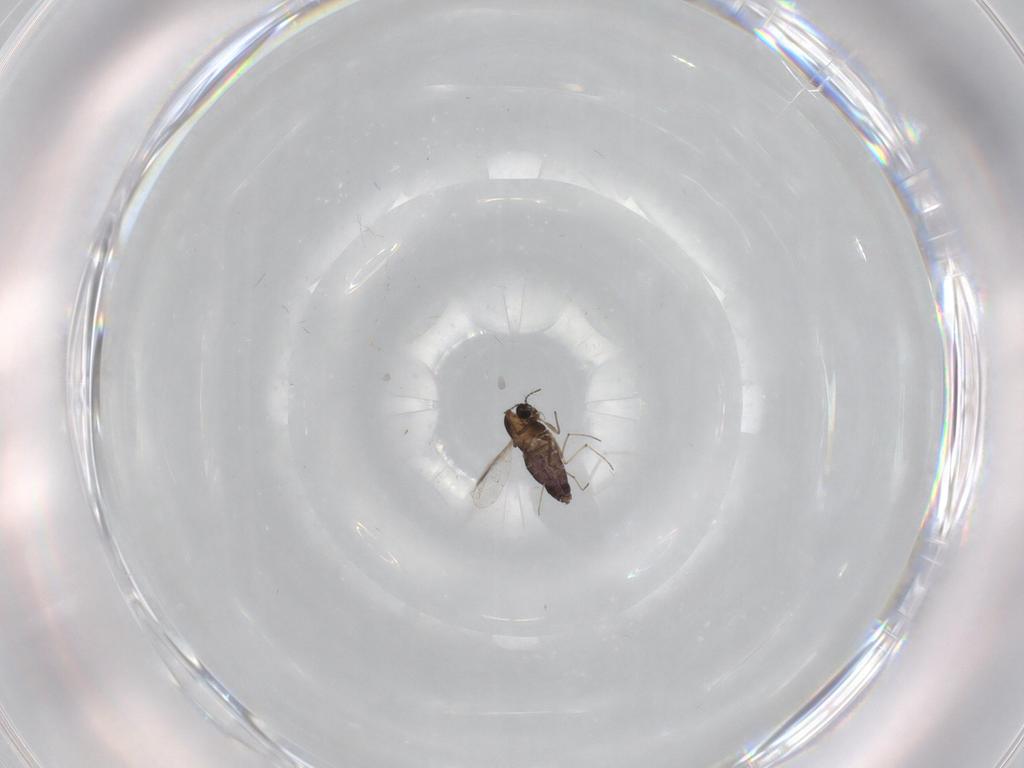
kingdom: Animalia
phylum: Arthropoda
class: Insecta
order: Diptera
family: Chironomidae
